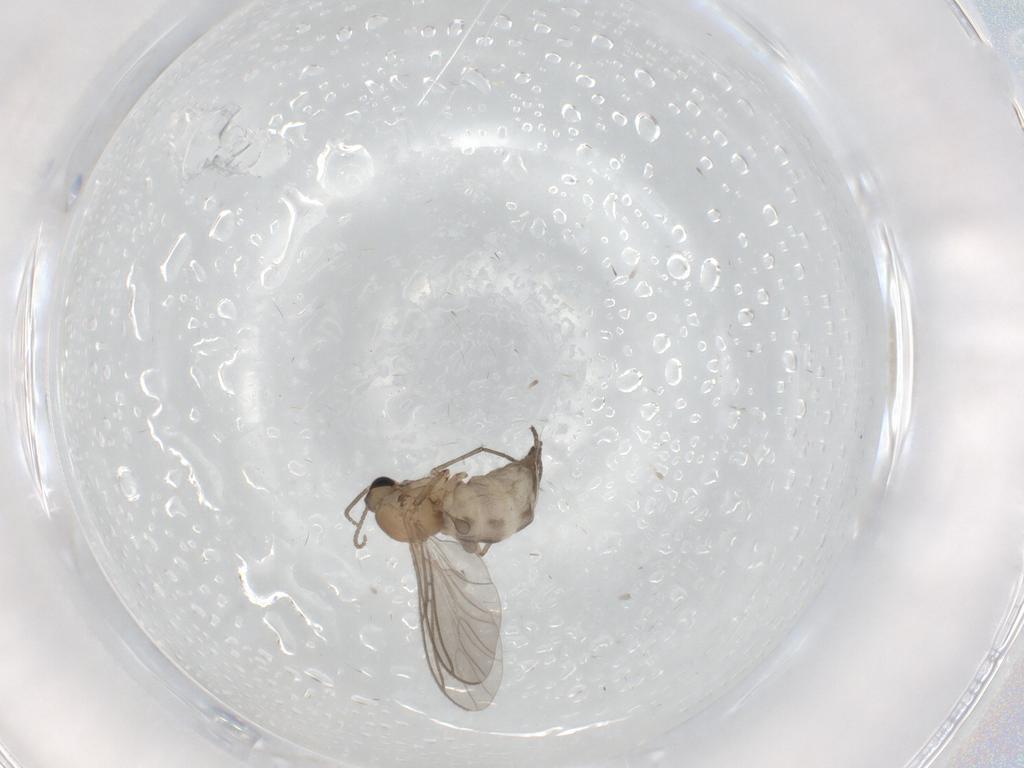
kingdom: Animalia
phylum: Arthropoda
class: Insecta
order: Diptera
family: Sciaridae
